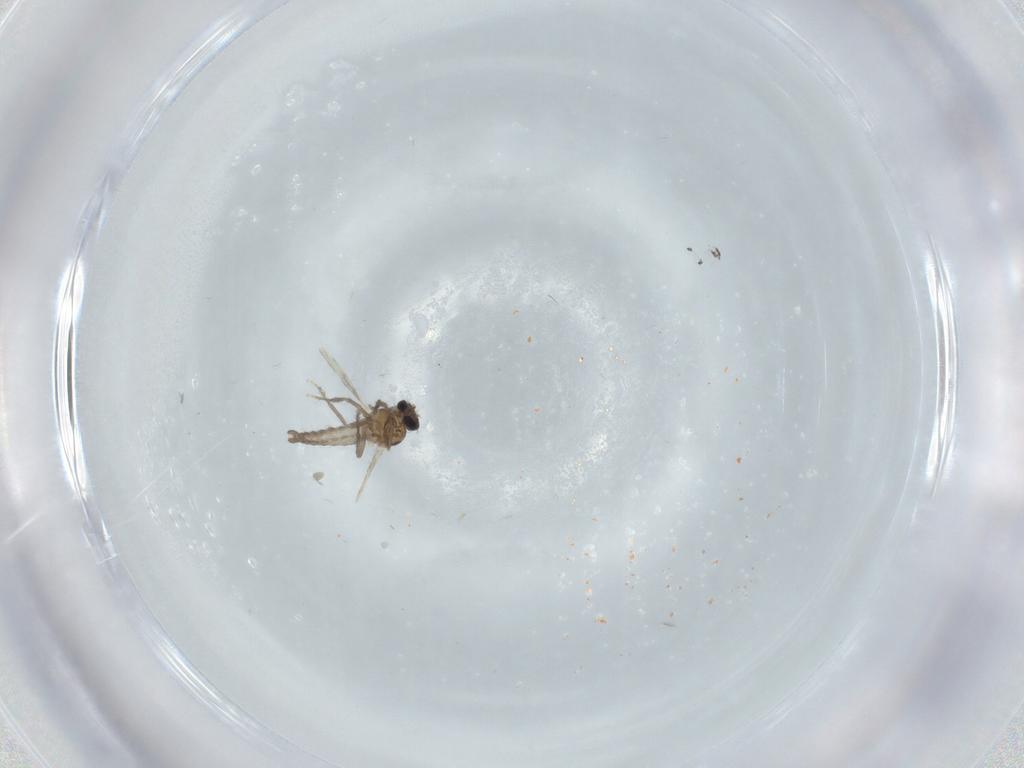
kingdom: Animalia
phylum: Arthropoda
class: Insecta
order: Diptera
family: Ceratopogonidae
